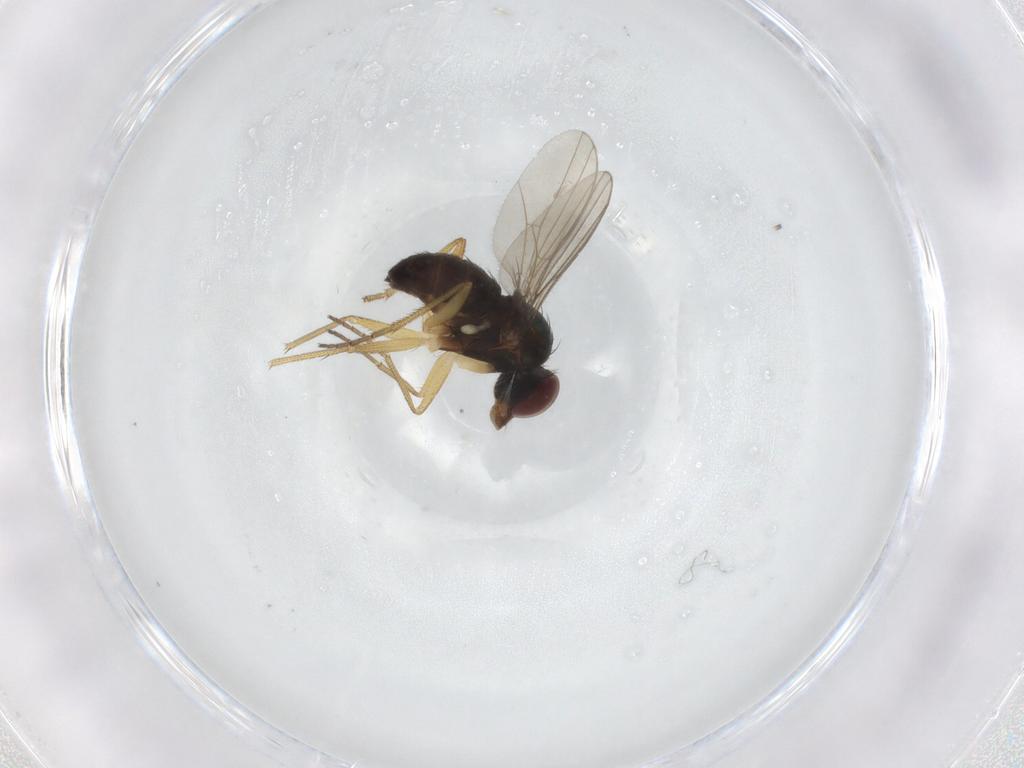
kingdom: Animalia
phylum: Arthropoda
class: Insecta
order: Diptera
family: Dolichopodidae
